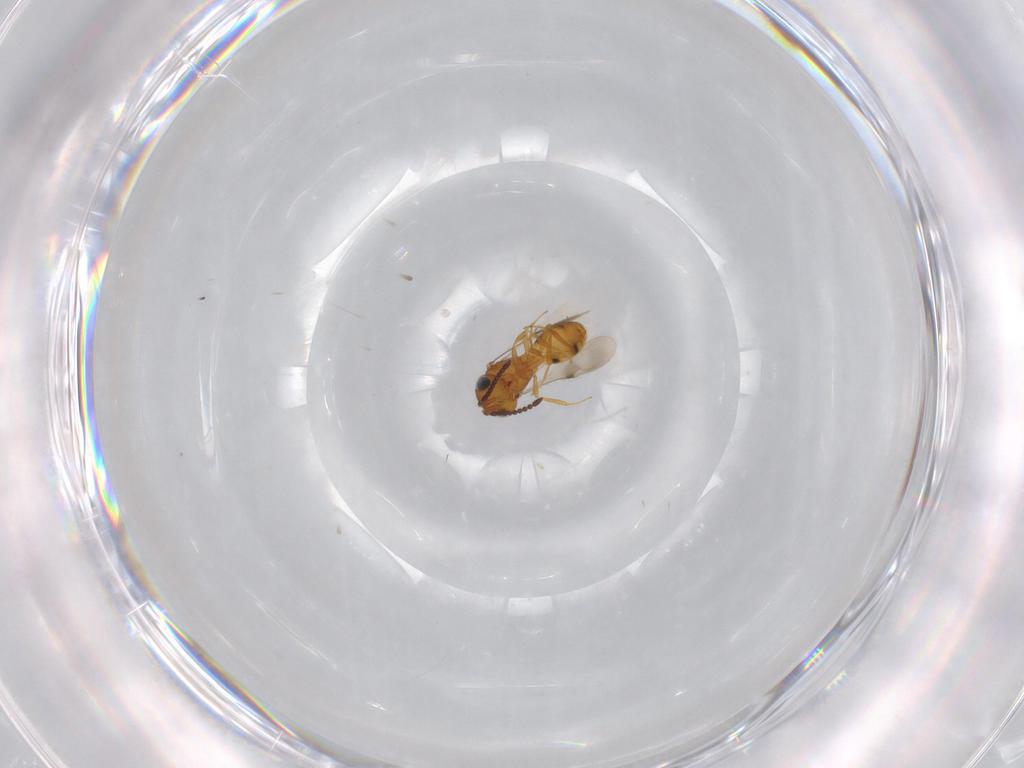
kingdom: Animalia
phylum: Arthropoda
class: Insecta
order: Hymenoptera
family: Scelionidae
